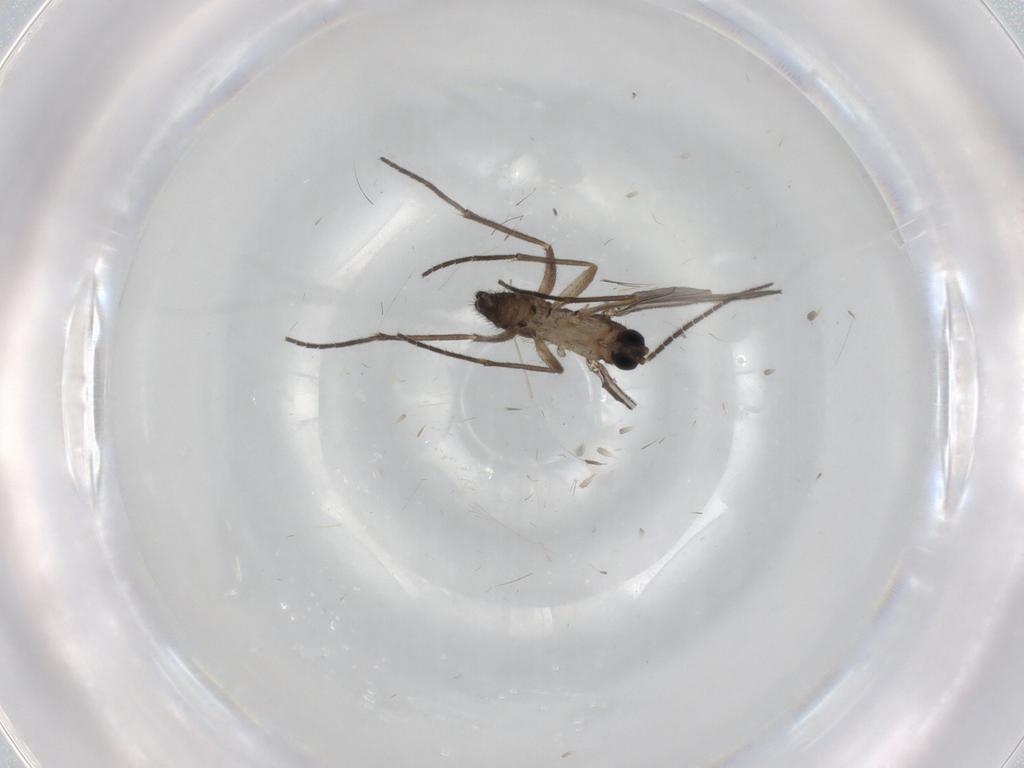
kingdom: Animalia
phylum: Arthropoda
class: Insecta
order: Diptera
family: Sciaridae
